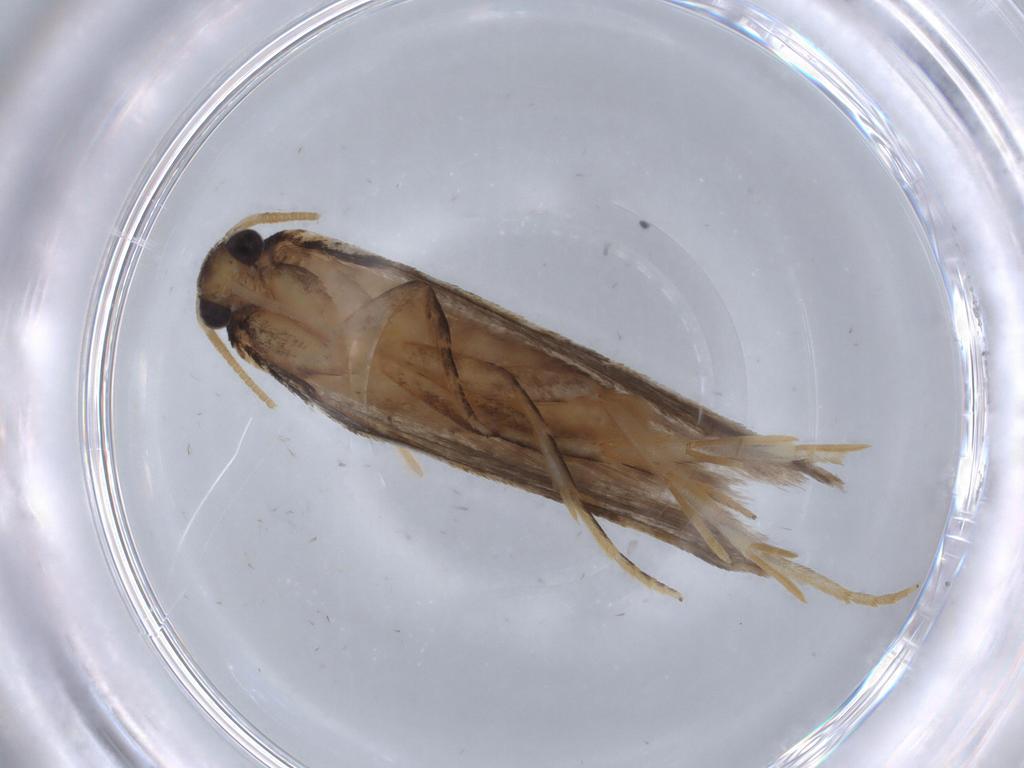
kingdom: Animalia
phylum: Arthropoda
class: Insecta
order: Lepidoptera
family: Oecophoridae
